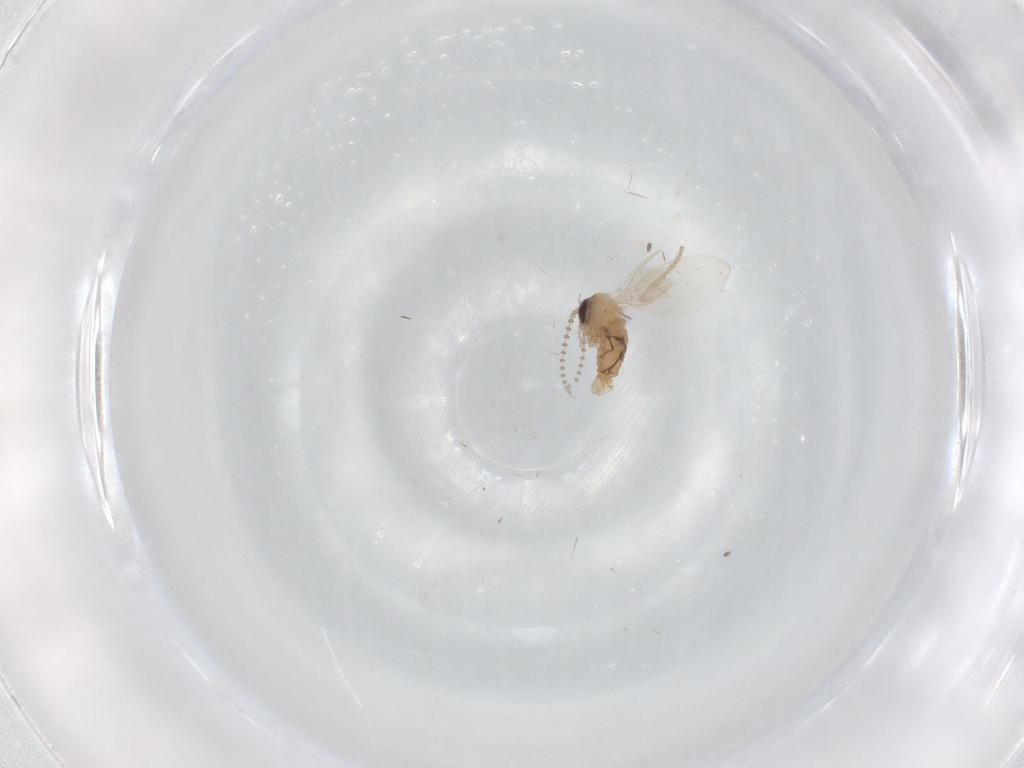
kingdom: Animalia
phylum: Arthropoda
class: Insecta
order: Diptera
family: Psychodidae
